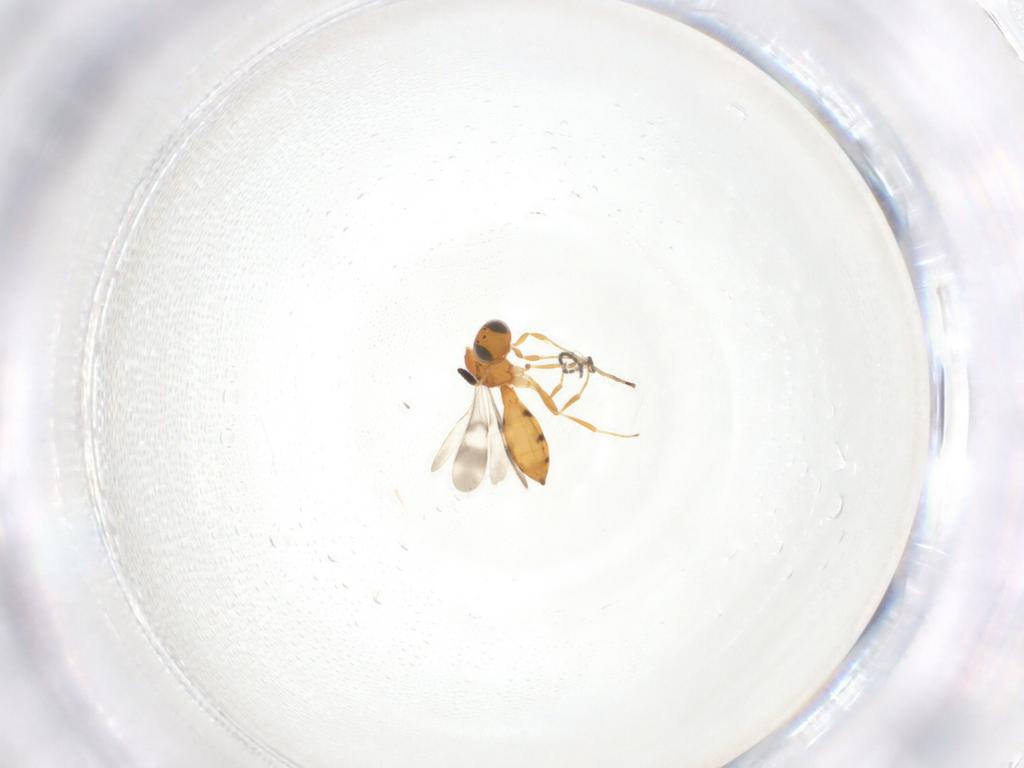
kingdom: Animalia
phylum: Arthropoda
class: Insecta
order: Hymenoptera
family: Scelionidae
